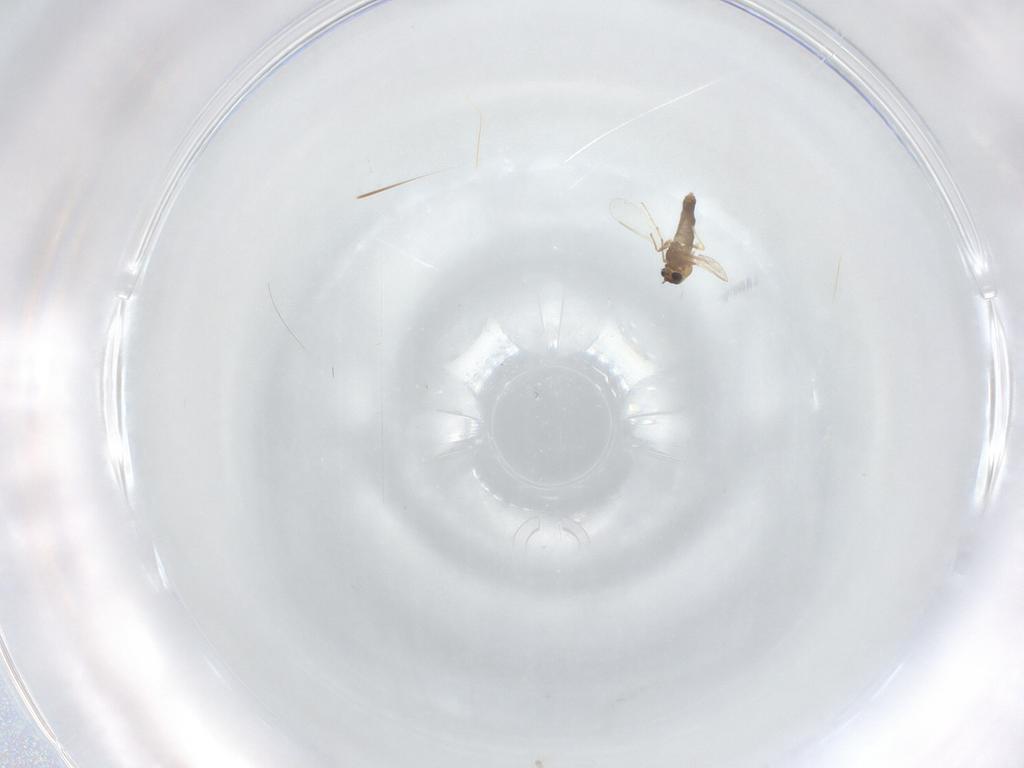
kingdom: Animalia
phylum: Arthropoda
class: Insecta
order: Diptera
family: Chironomidae
